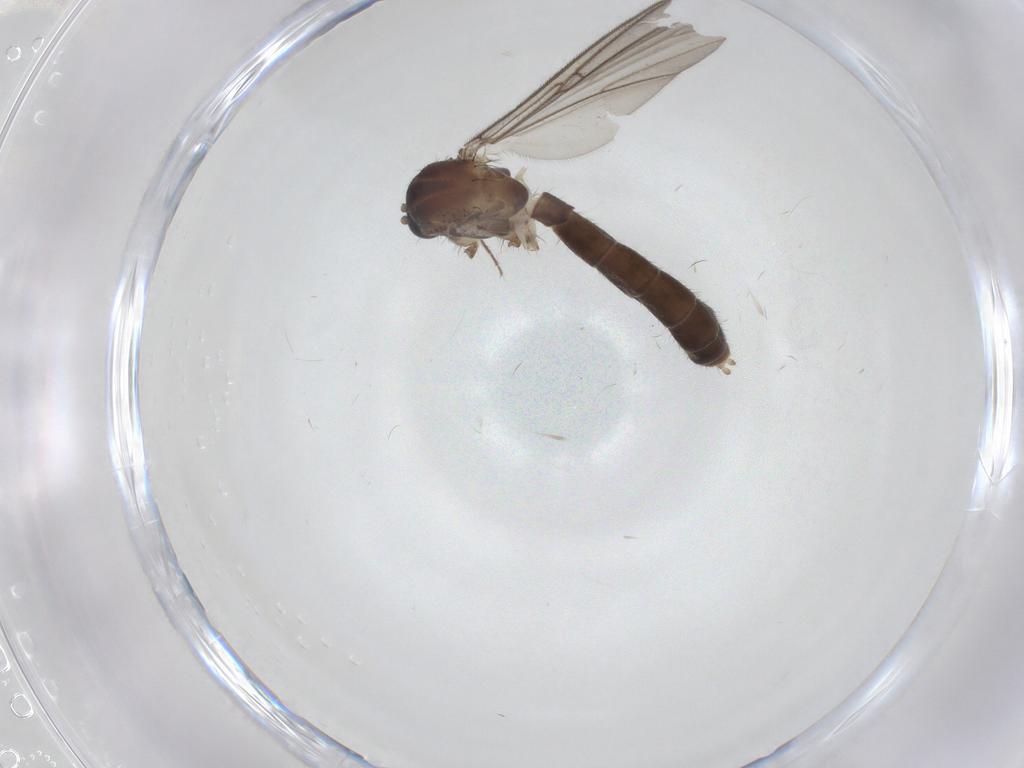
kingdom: Animalia
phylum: Arthropoda
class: Insecta
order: Diptera
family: Mycetophilidae
